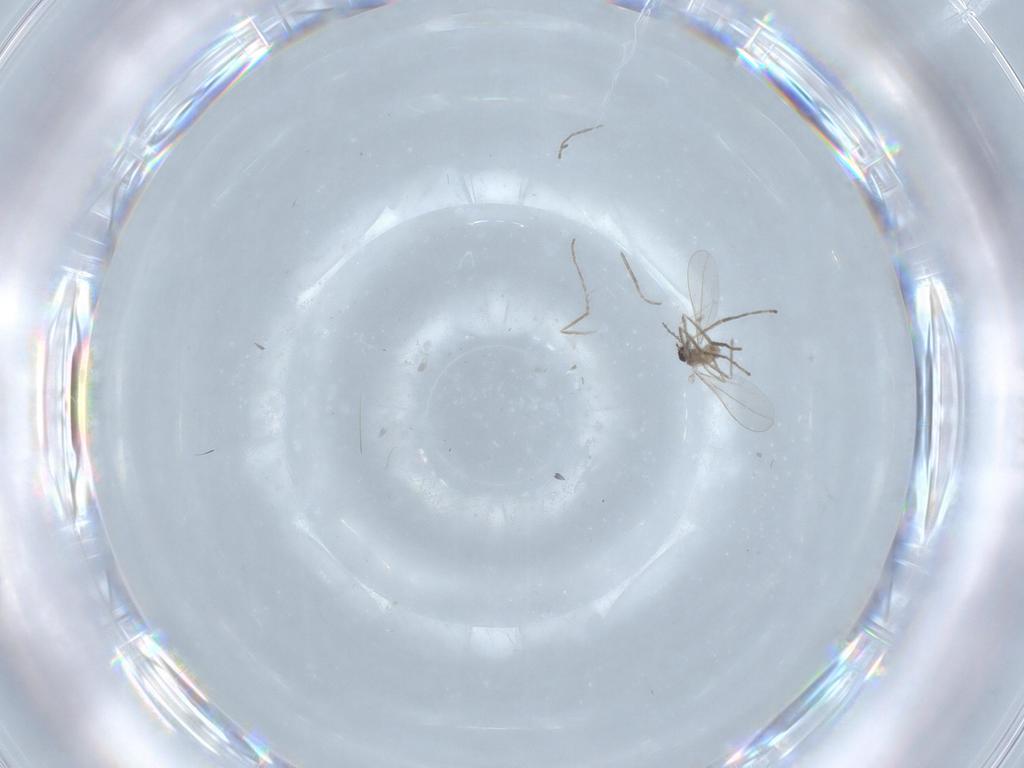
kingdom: Animalia
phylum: Arthropoda
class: Insecta
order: Diptera
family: Cecidomyiidae
